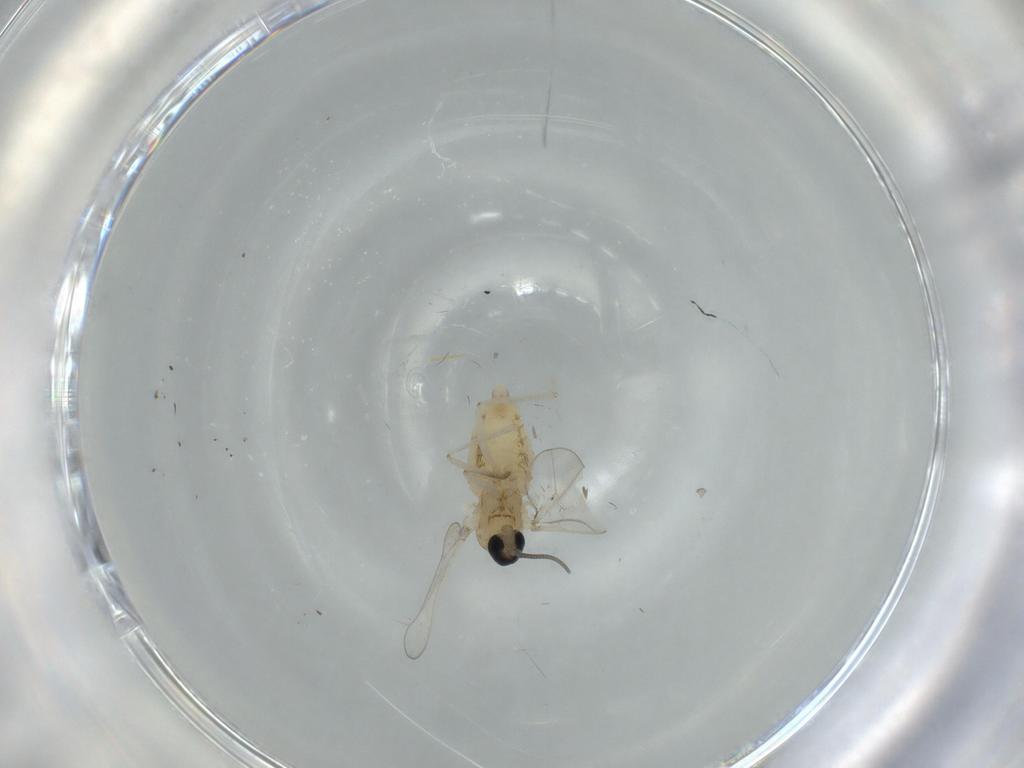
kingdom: Animalia
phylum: Arthropoda
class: Insecta
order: Diptera
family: Cecidomyiidae
